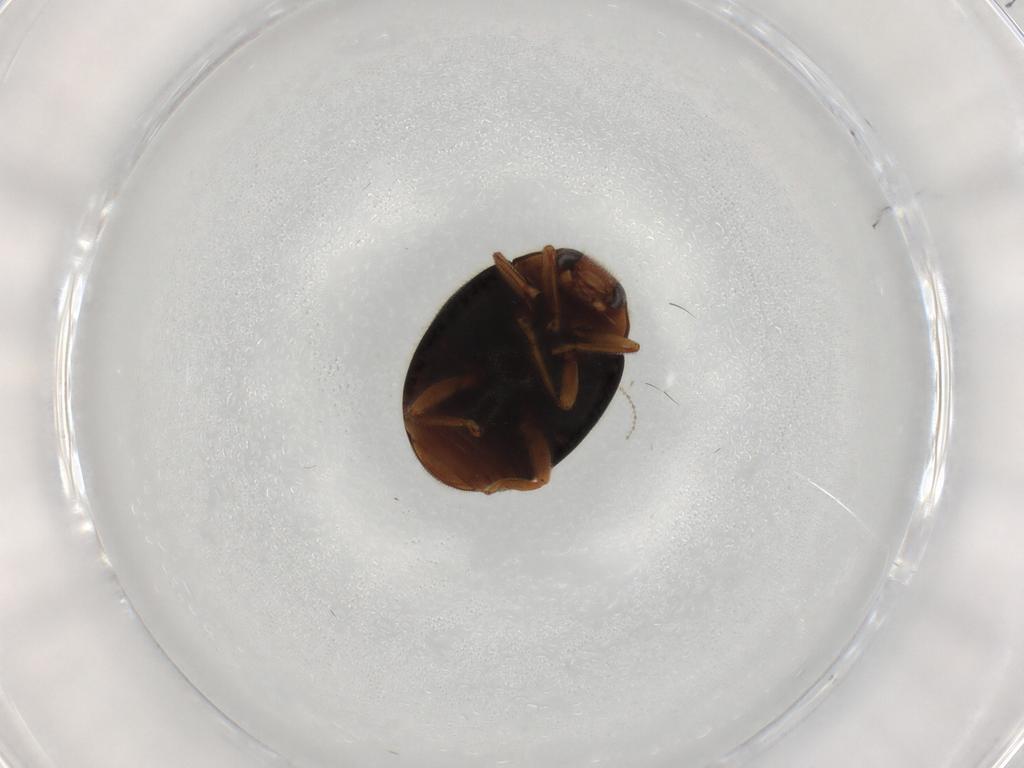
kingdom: Animalia
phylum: Arthropoda
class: Insecta
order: Coleoptera
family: Coccinellidae
